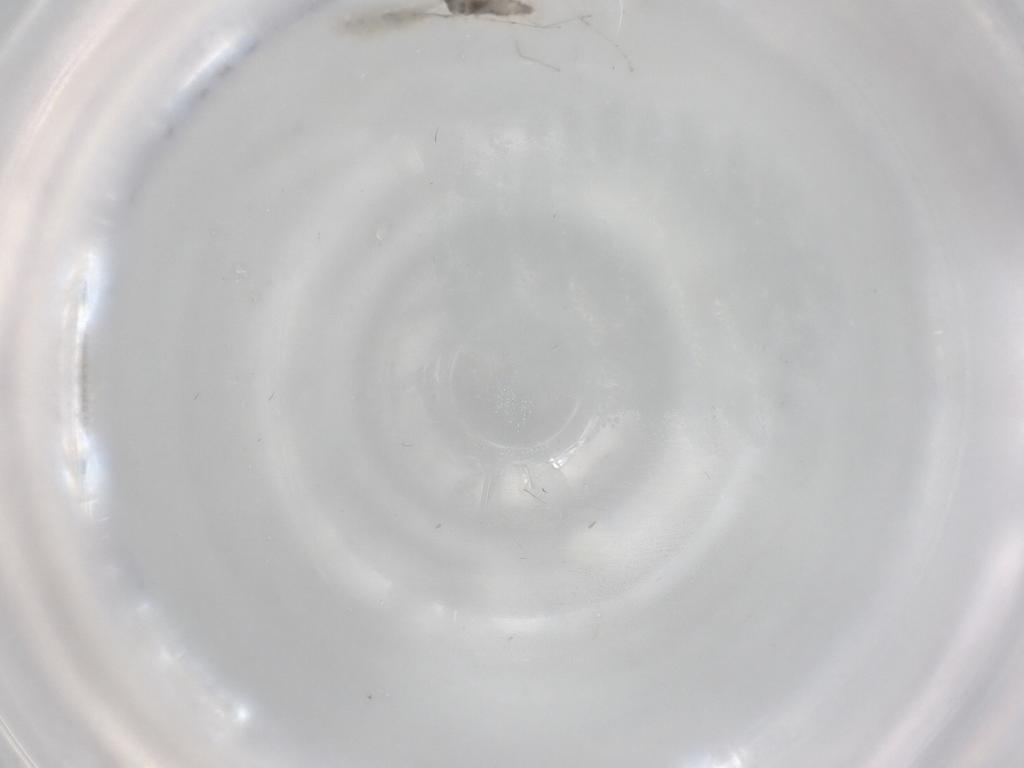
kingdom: Animalia
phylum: Arthropoda
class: Insecta
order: Diptera
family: Cecidomyiidae
